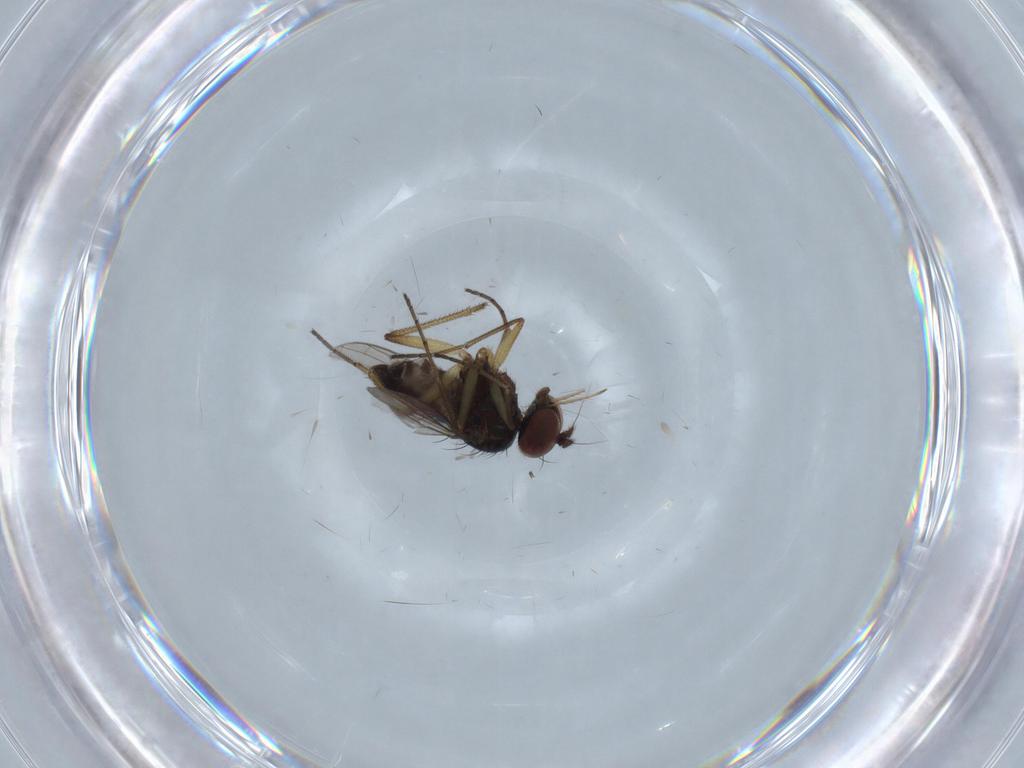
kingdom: Animalia
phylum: Arthropoda
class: Insecta
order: Diptera
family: Dolichopodidae
